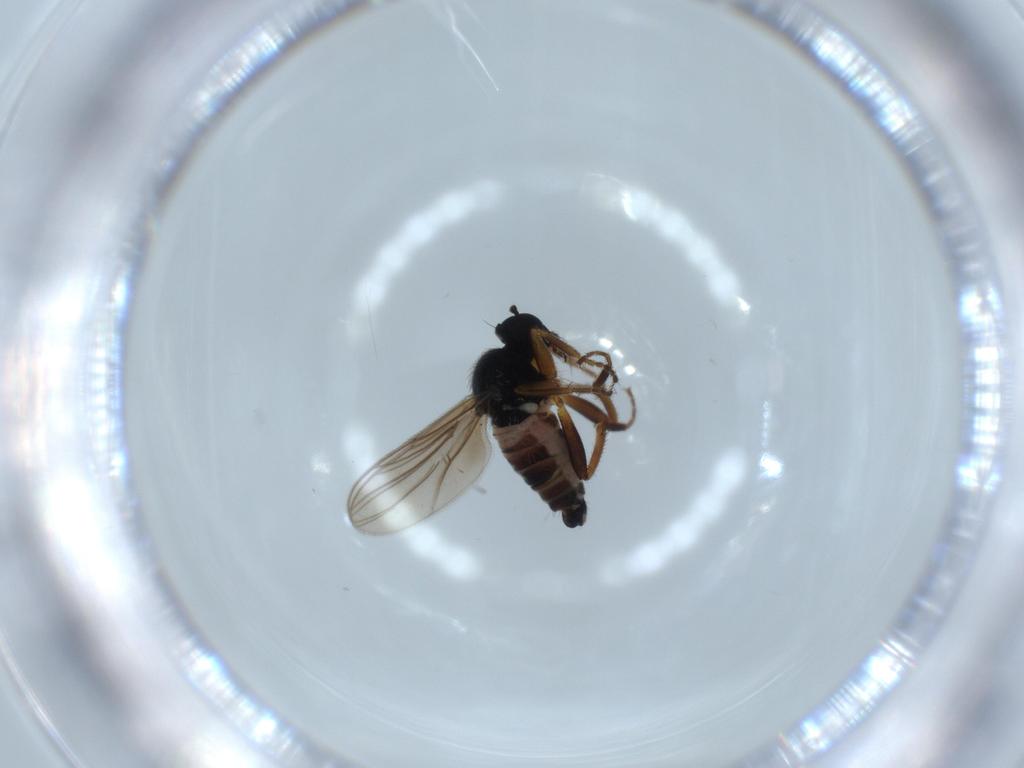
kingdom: Animalia
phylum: Arthropoda
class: Insecta
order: Diptera
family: Hybotidae
